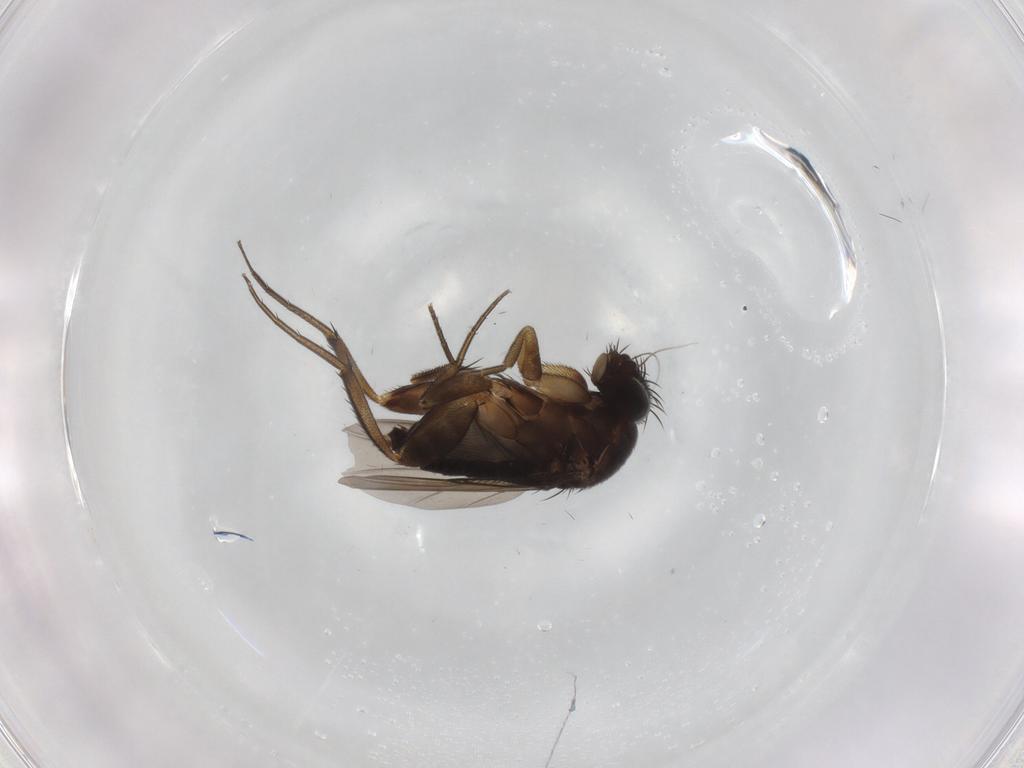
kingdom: Animalia
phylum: Arthropoda
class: Insecta
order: Diptera
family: Phoridae
